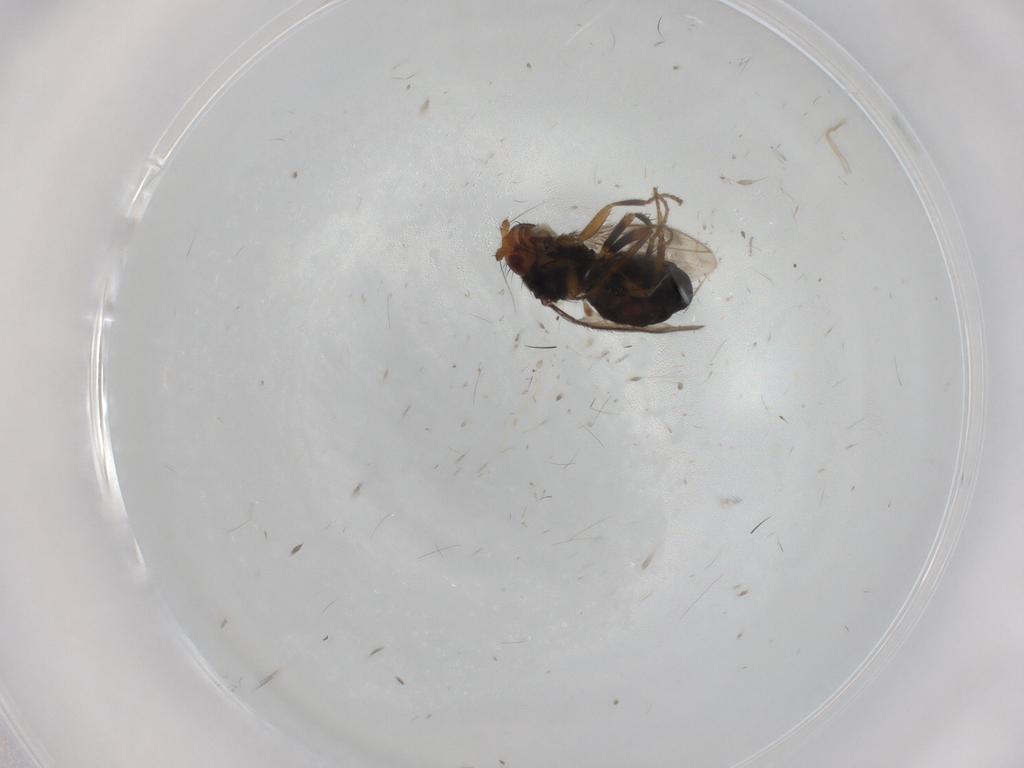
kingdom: Animalia
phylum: Arthropoda
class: Insecta
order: Diptera
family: Sphaeroceridae
